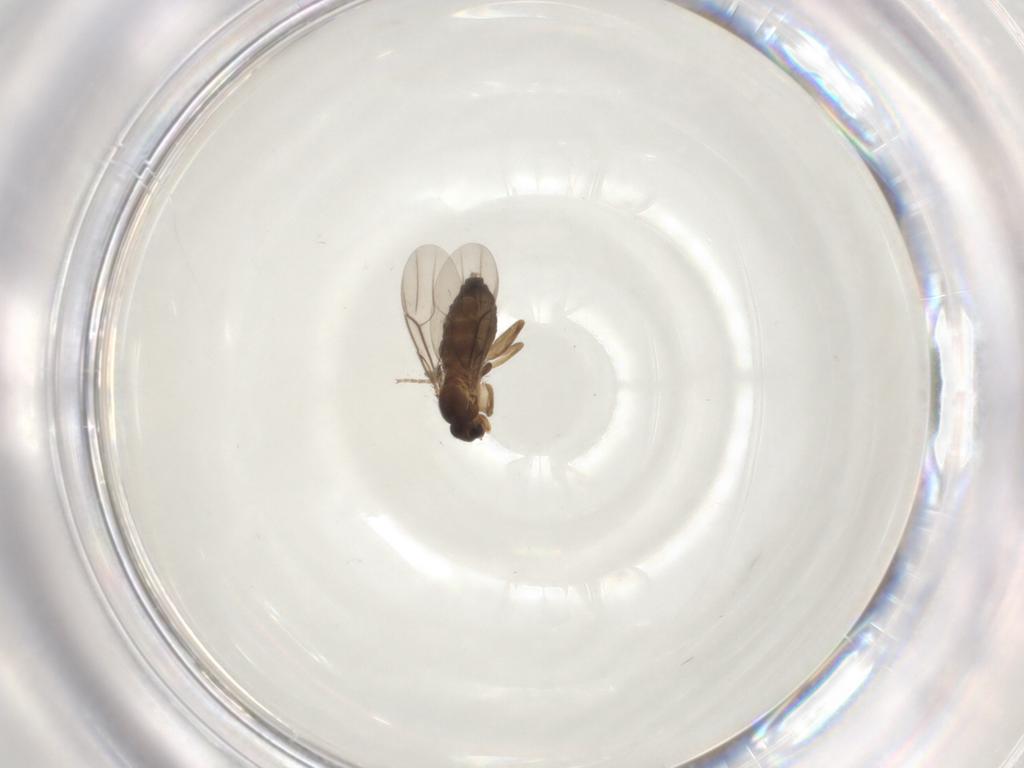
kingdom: Animalia
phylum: Arthropoda
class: Insecta
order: Diptera
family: Phoridae
